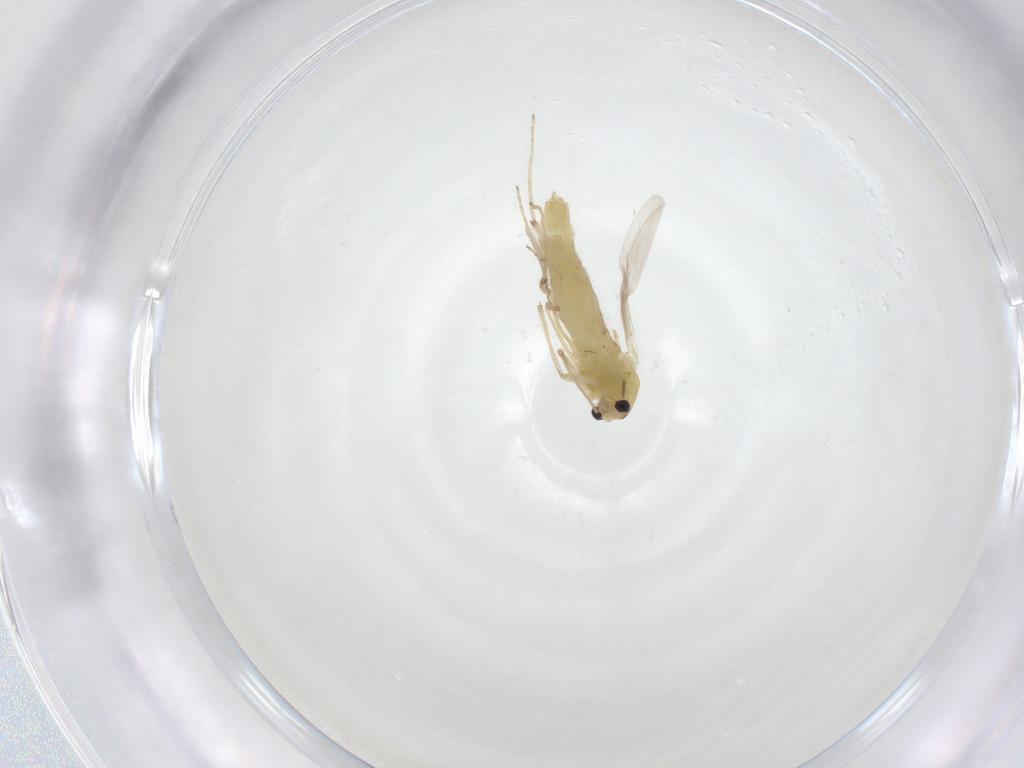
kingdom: Animalia
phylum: Arthropoda
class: Insecta
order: Diptera
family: Chironomidae
